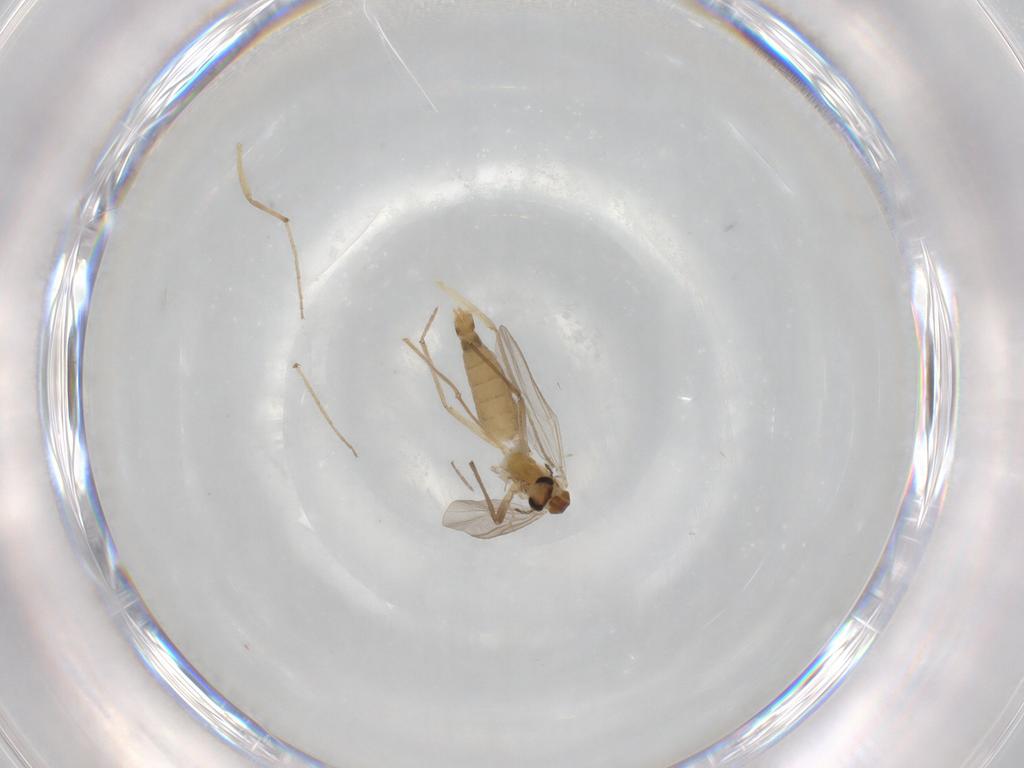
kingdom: Animalia
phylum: Arthropoda
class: Insecta
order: Diptera
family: Chironomidae
